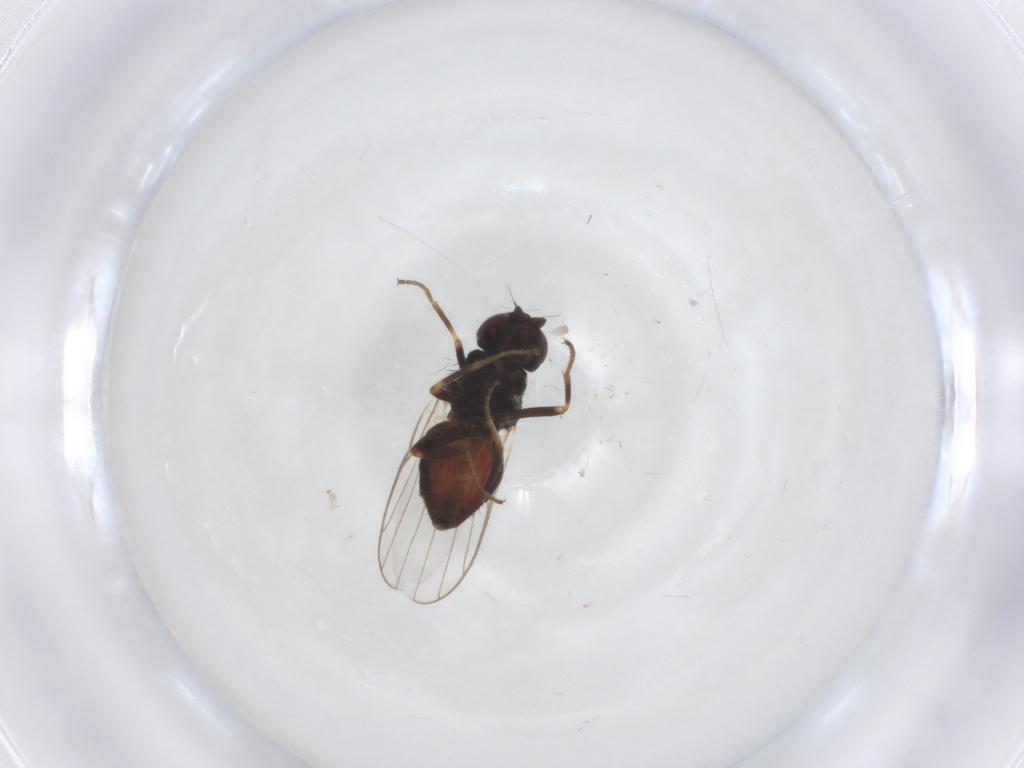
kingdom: Animalia
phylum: Arthropoda
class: Insecta
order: Diptera
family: Chloropidae
